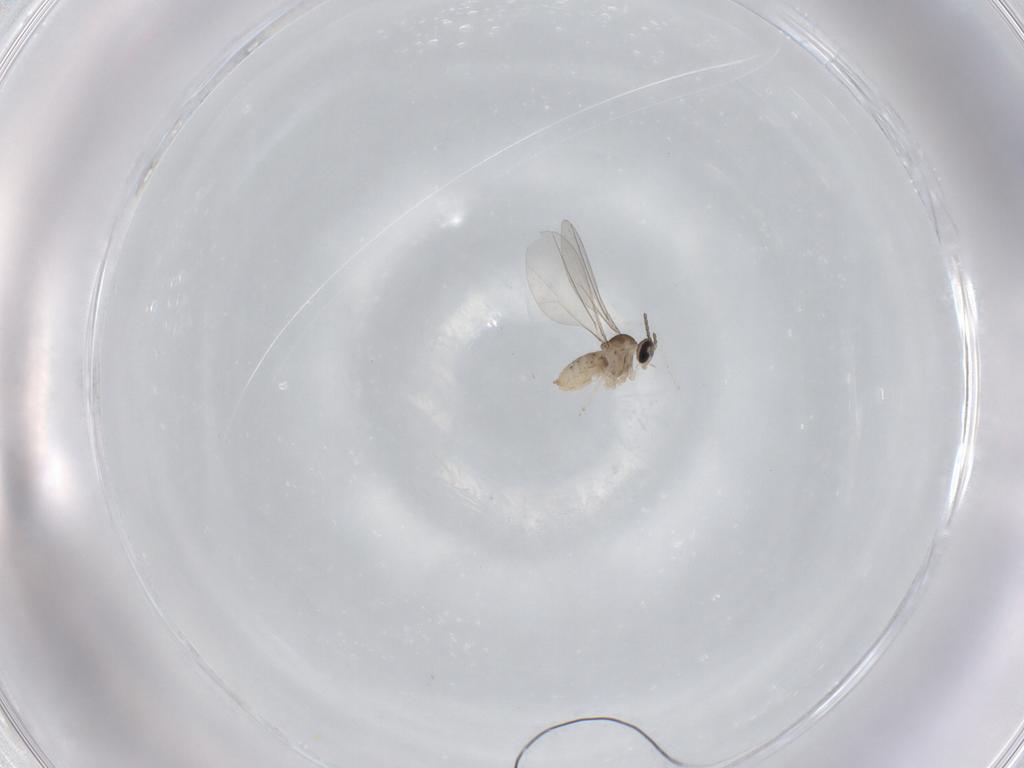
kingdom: Animalia
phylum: Arthropoda
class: Insecta
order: Diptera
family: Cecidomyiidae
